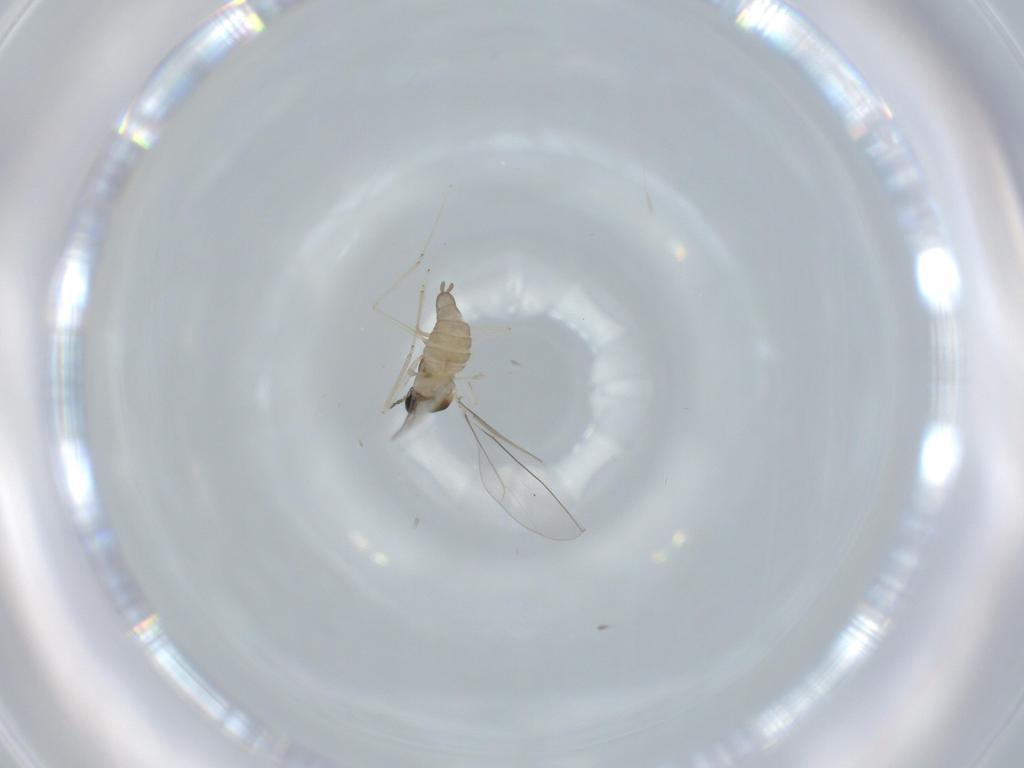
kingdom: Animalia
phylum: Arthropoda
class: Insecta
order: Diptera
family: Cecidomyiidae
